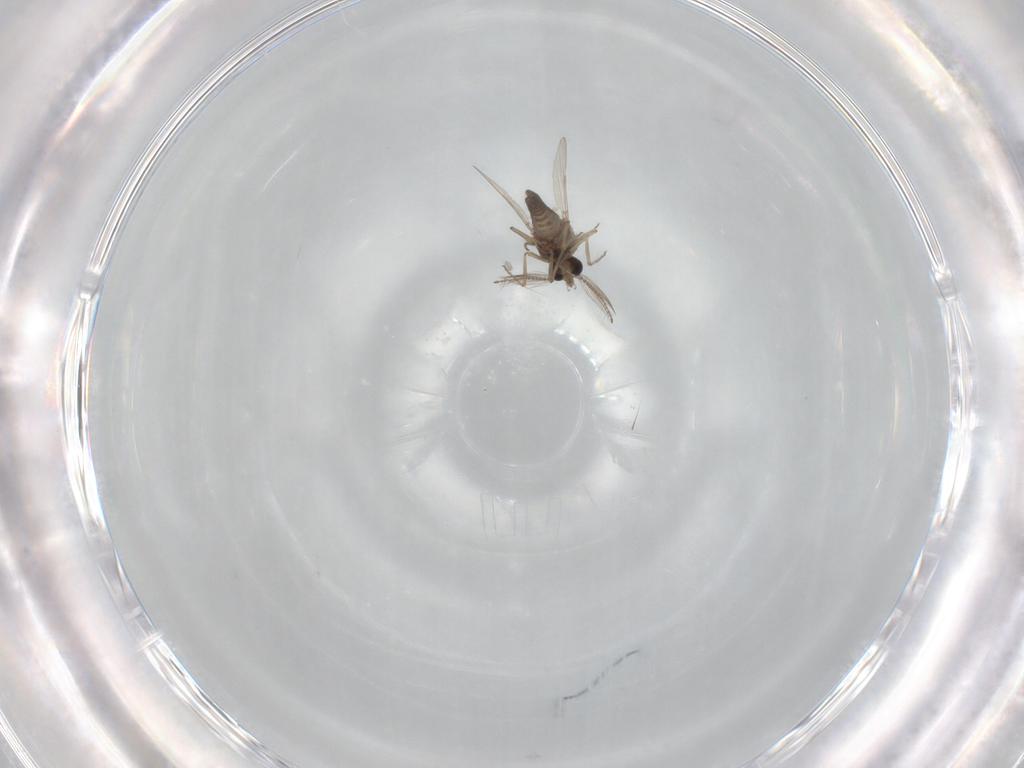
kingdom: Animalia
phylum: Arthropoda
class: Insecta
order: Diptera
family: Ceratopogonidae
